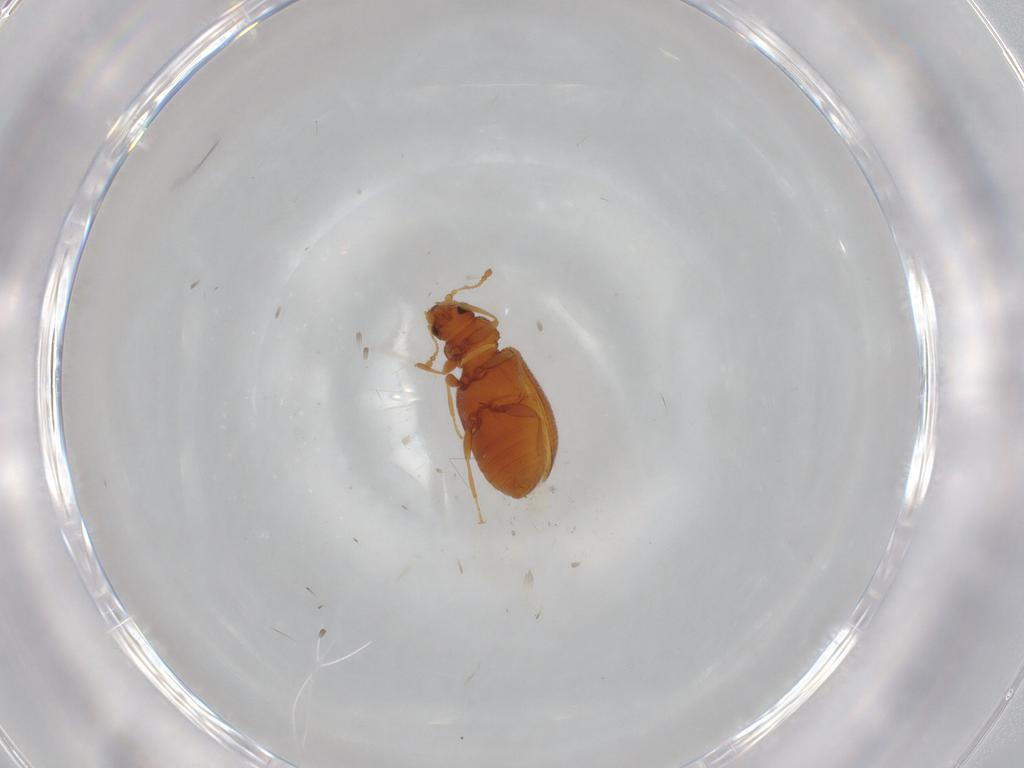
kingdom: Animalia
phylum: Arthropoda
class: Insecta
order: Coleoptera
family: Latridiidae
